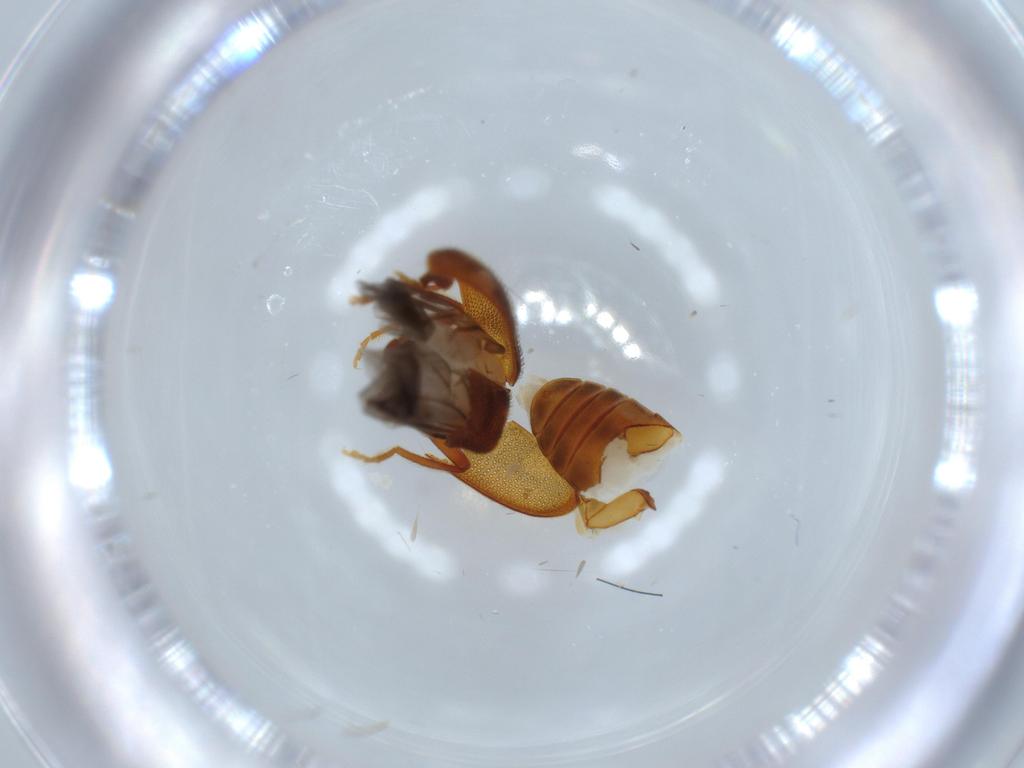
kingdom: Animalia
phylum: Arthropoda
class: Insecta
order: Coleoptera
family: Aderidae
